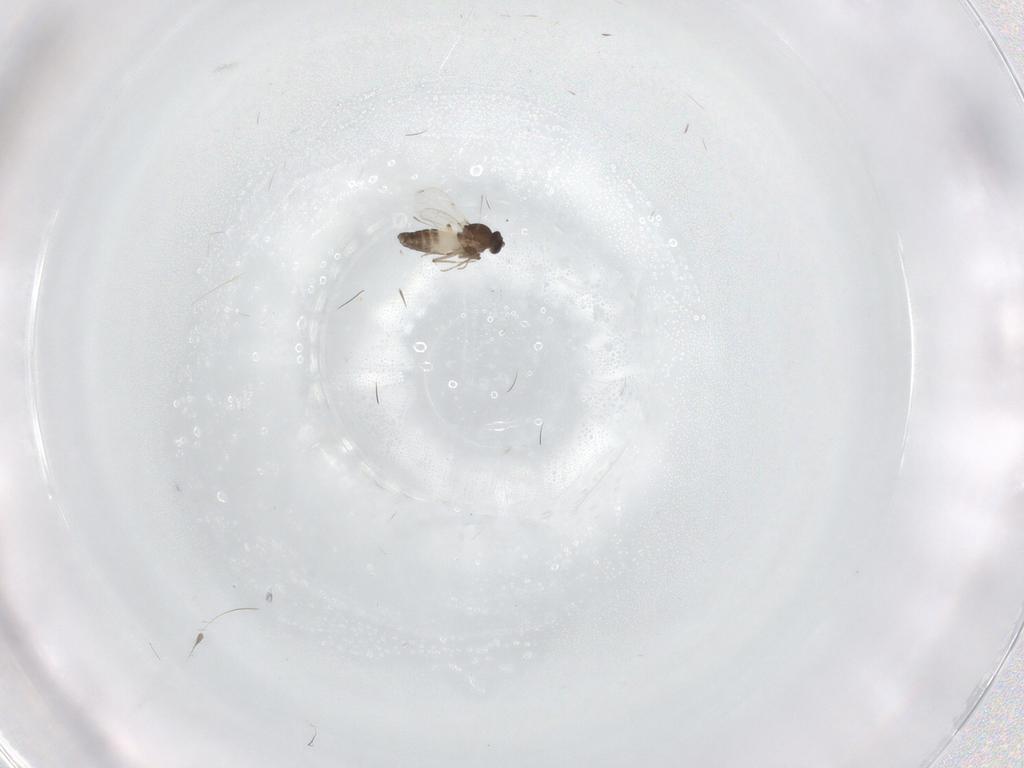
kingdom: Animalia
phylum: Arthropoda
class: Insecta
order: Diptera
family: Ceratopogonidae
